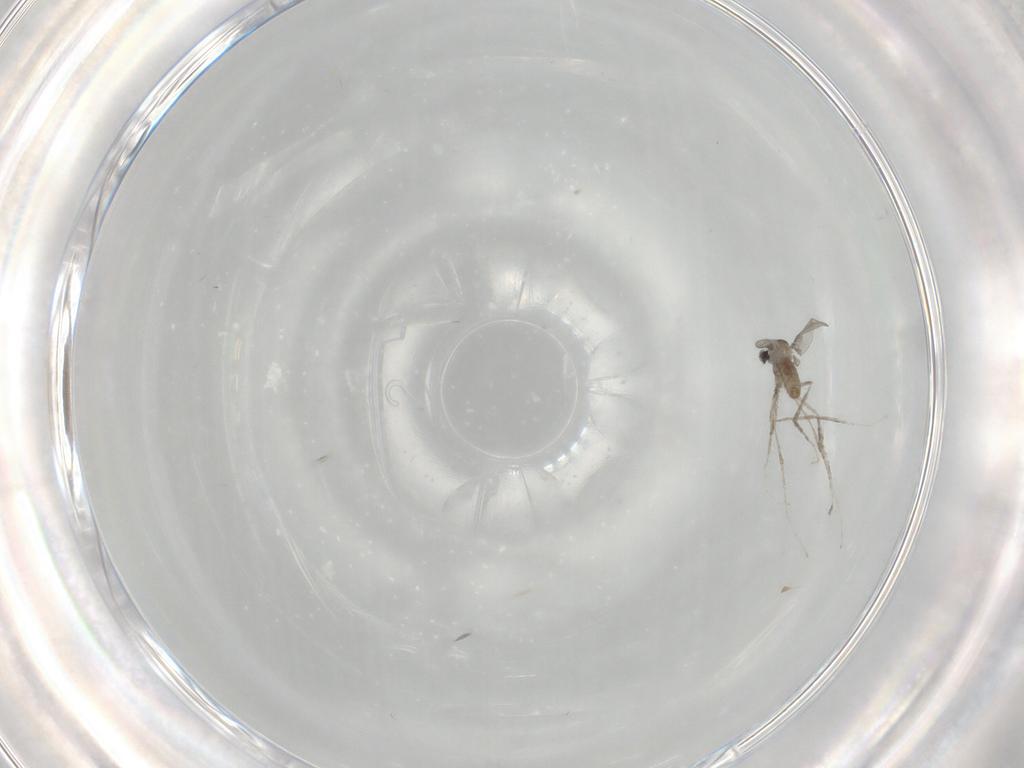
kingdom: Animalia
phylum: Arthropoda
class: Insecta
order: Diptera
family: Cecidomyiidae
